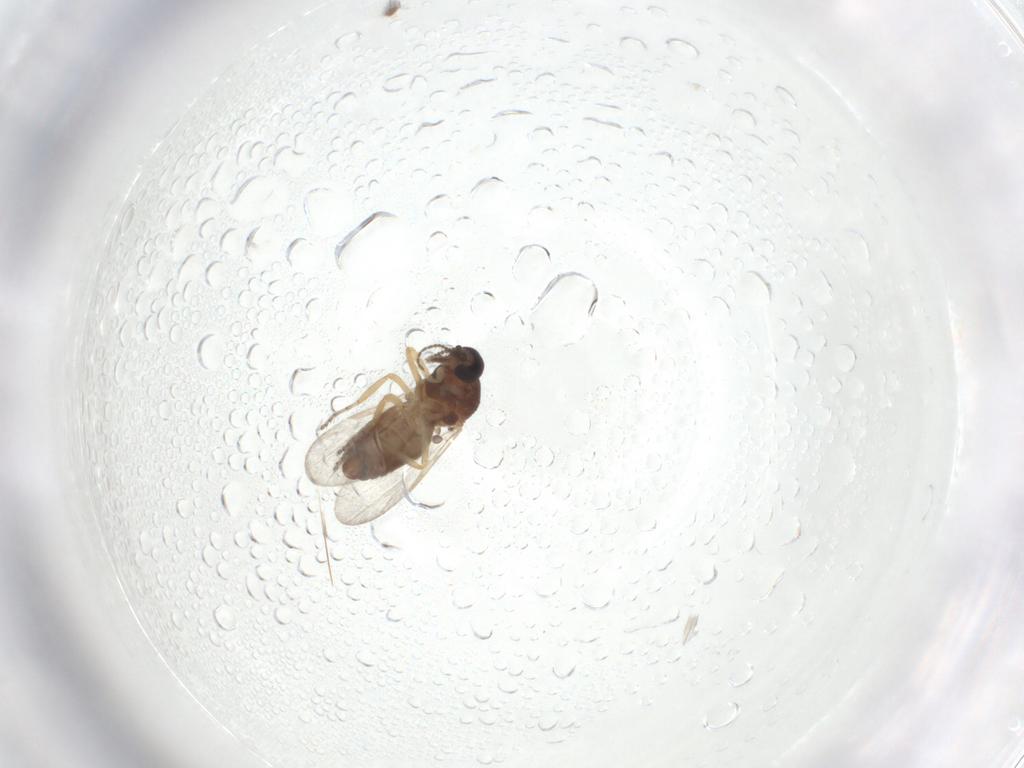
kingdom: Animalia
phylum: Arthropoda
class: Insecta
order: Diptera
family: Ceratopogonidae
